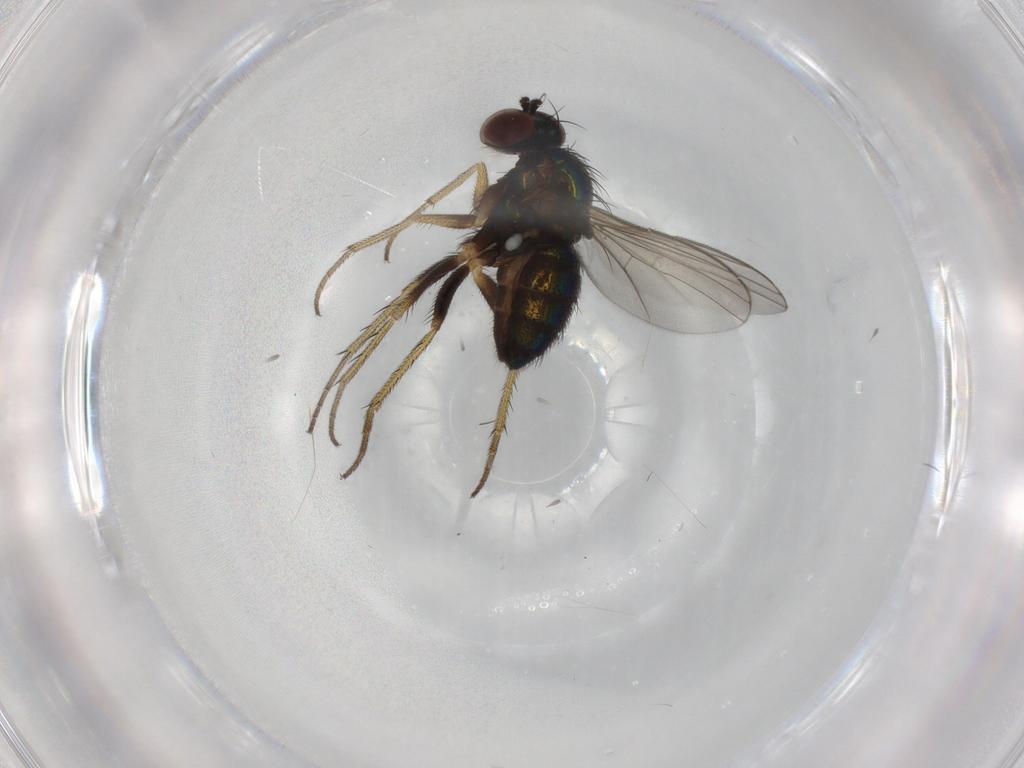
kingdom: Animalia
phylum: Arthropoda
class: Insecta
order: Diptera
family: Dolichopodidae
